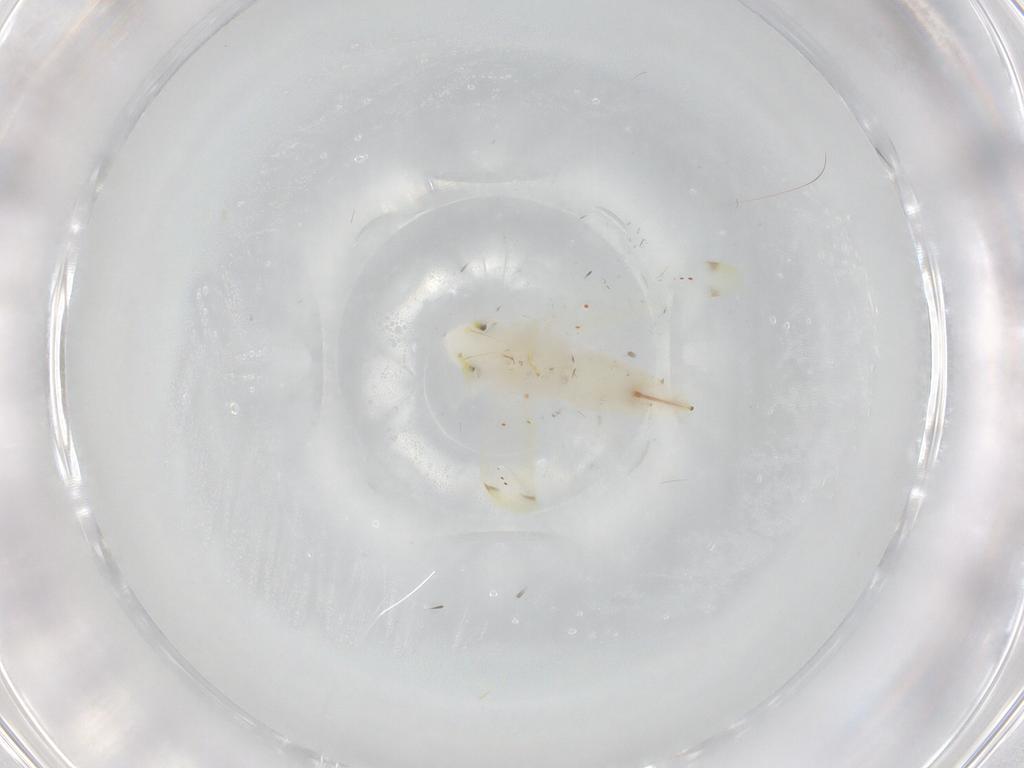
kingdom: Animalia
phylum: Arthropoda
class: Insecta
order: Hemiptera
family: Cicadellidae
